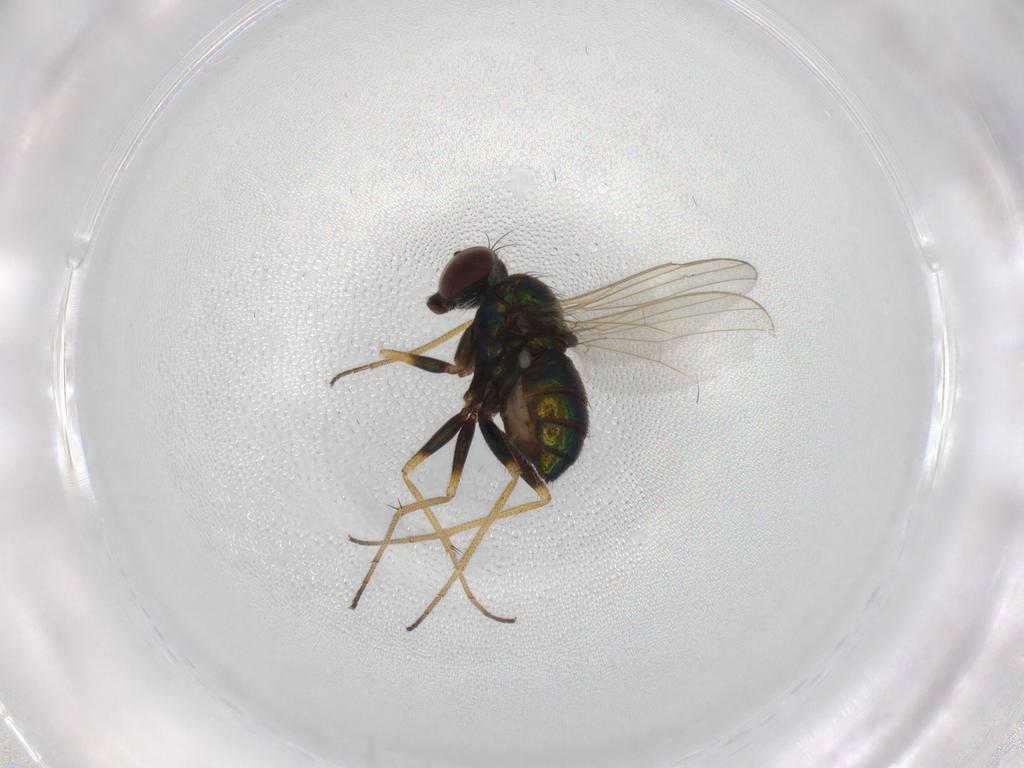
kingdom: Animalia
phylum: Arthropoda
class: Insecta
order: Diptera
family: Dolichopodidae
